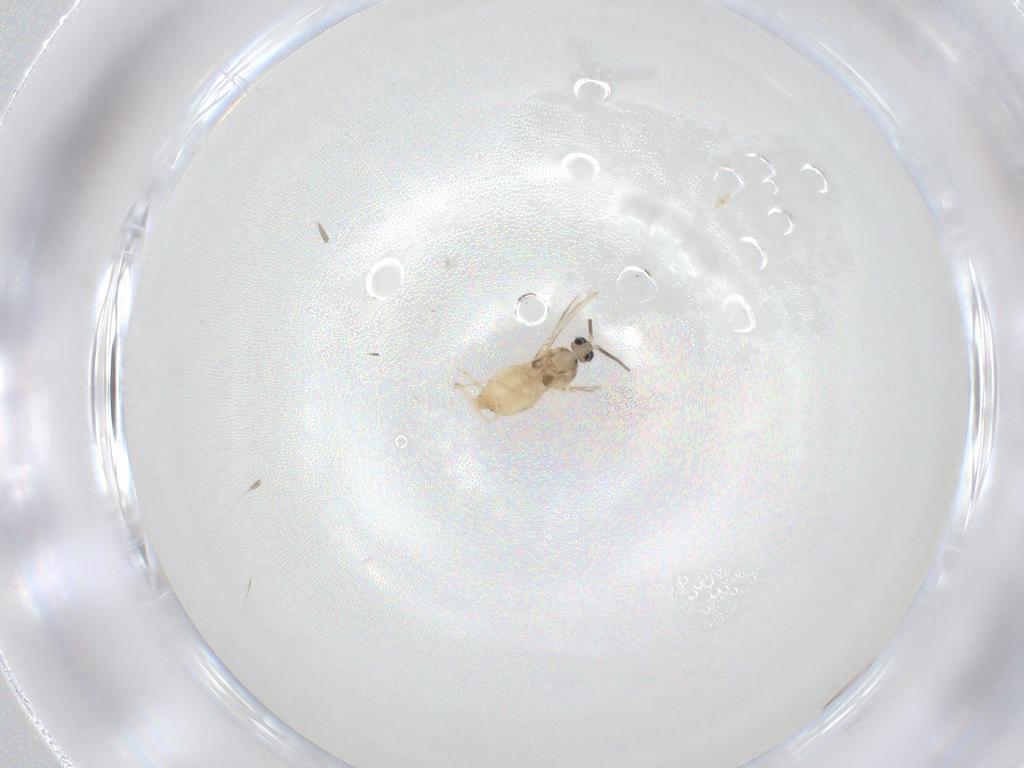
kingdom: Animalia
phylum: Arthropoda
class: Insecta
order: Diptera
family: Cecidomyiidae
